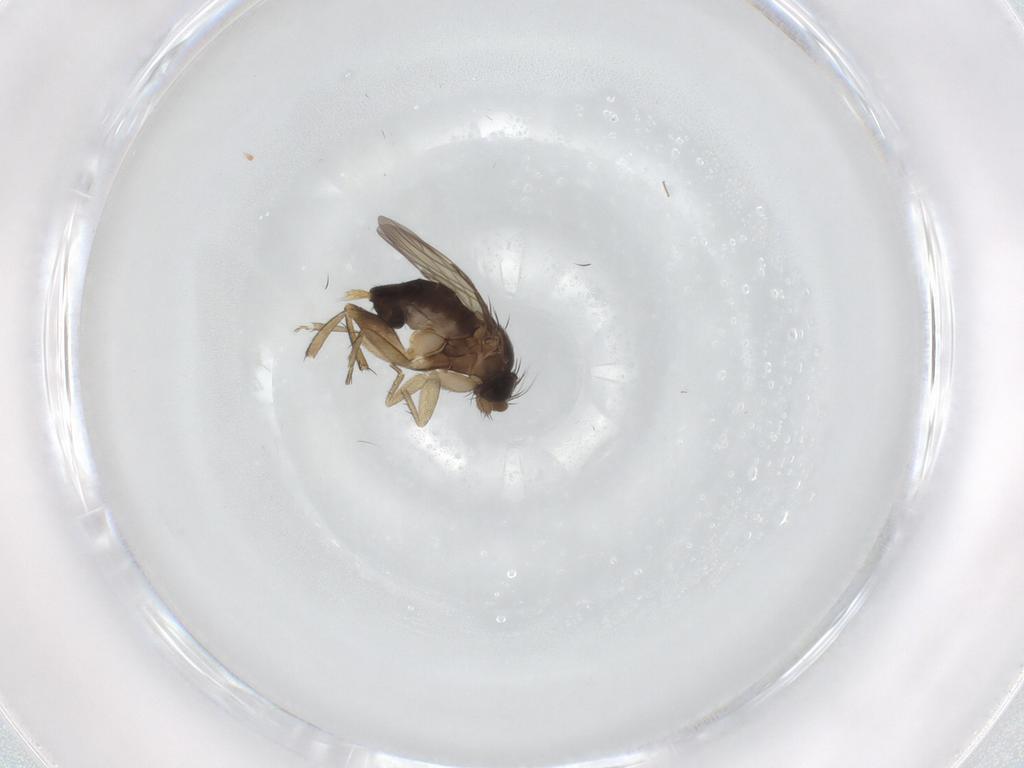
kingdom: Animalia
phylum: Arthropoda
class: Insecta
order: Diptera
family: Phoridae
